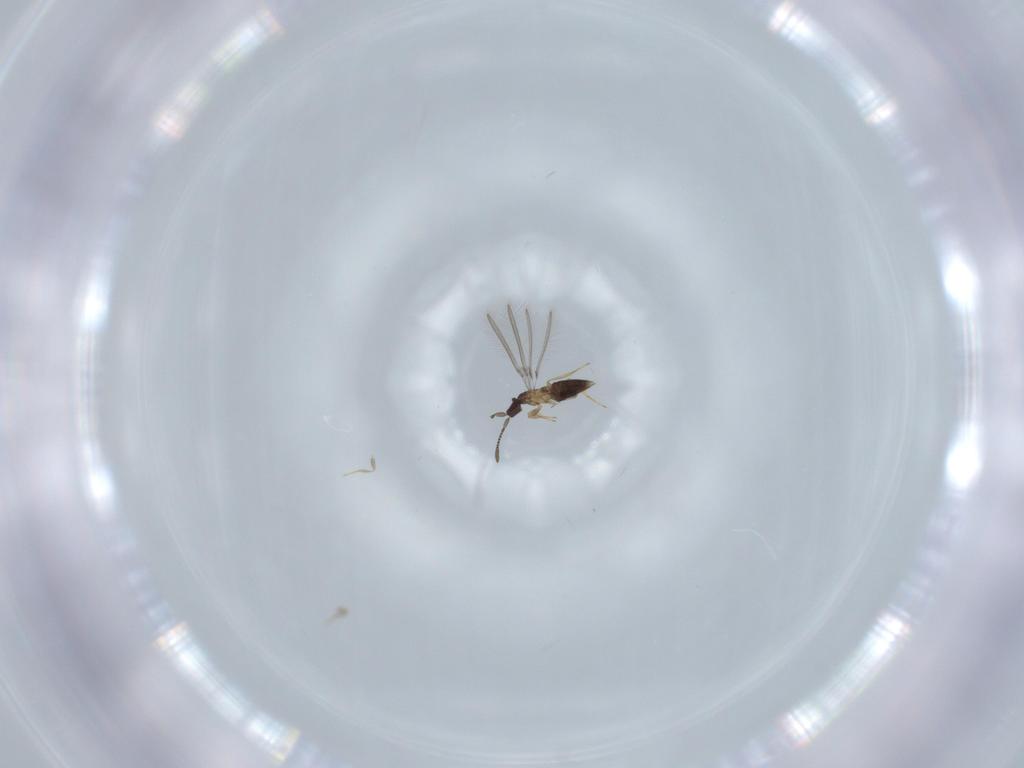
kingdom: Animalia
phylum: Arthropoda
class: Insecta
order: Hymenoptera
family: Mymaridae
